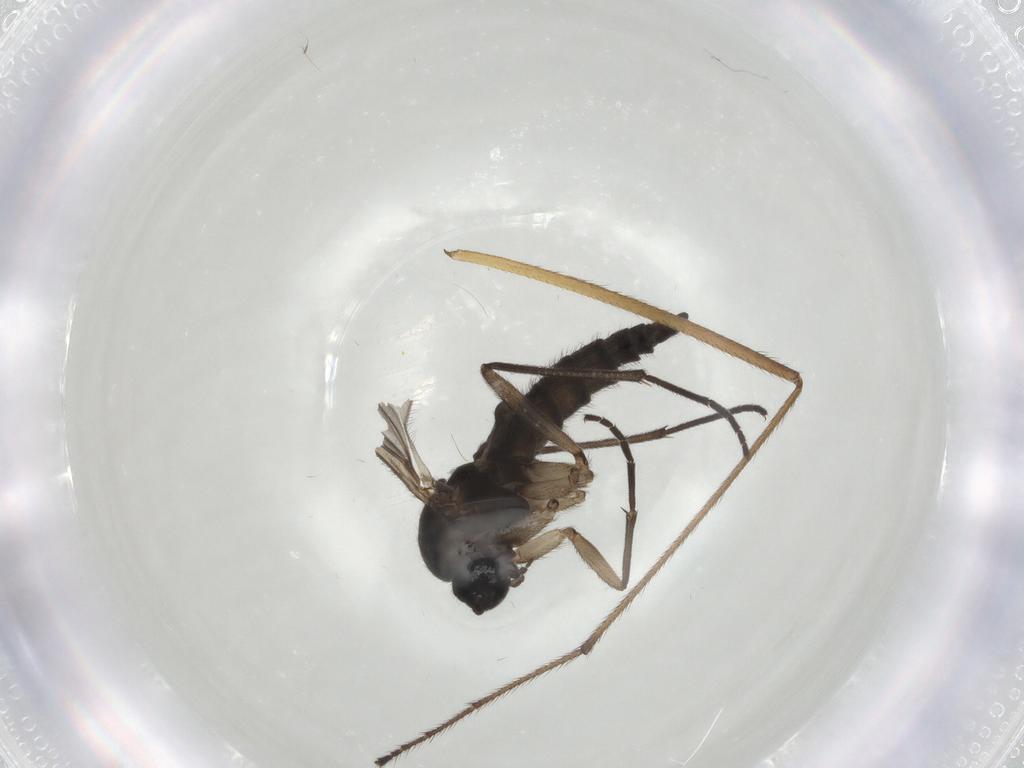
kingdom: Animalia
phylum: Arthropoda
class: Insecta
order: Diptera
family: Sciaridae
